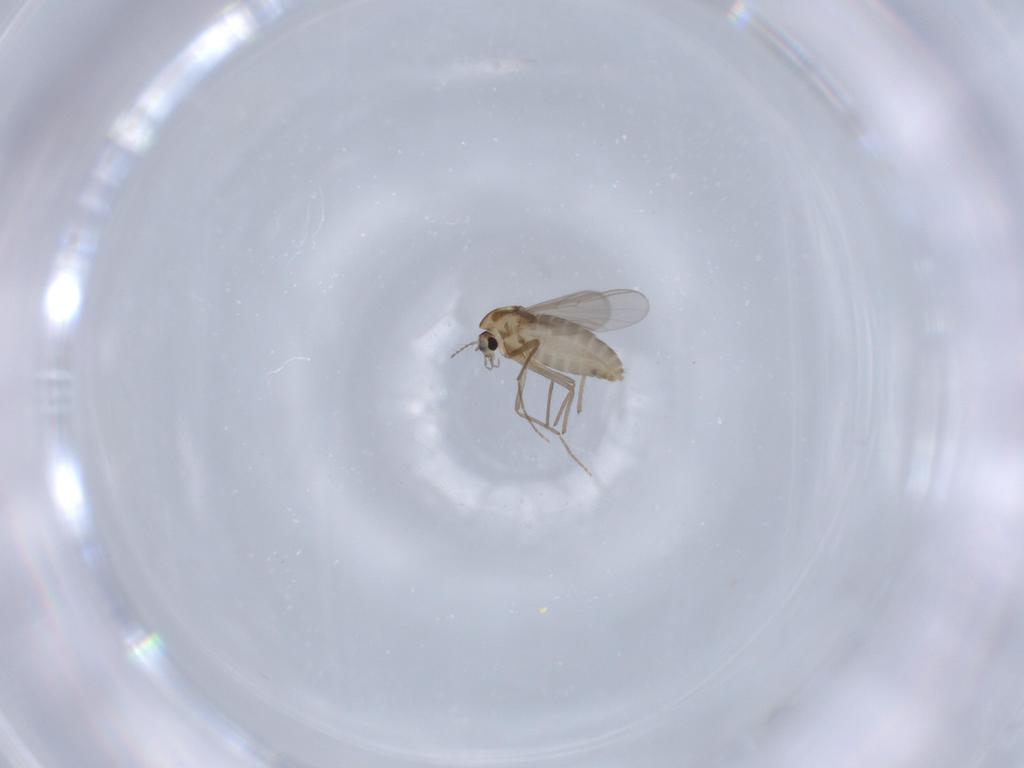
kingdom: Animalia
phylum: Arthropoda
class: Insecta
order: Diptera
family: Chironomidae
